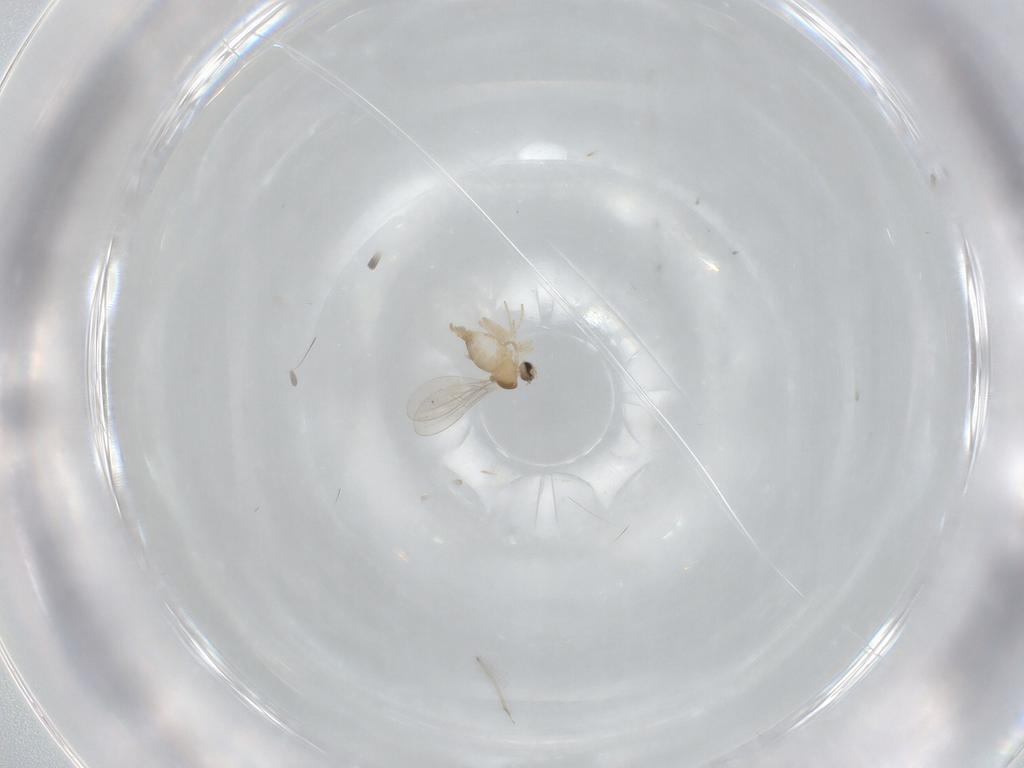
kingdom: Animalia
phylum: Arthropoda
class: Insecta
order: Diptera
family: Cecidomyiidae
